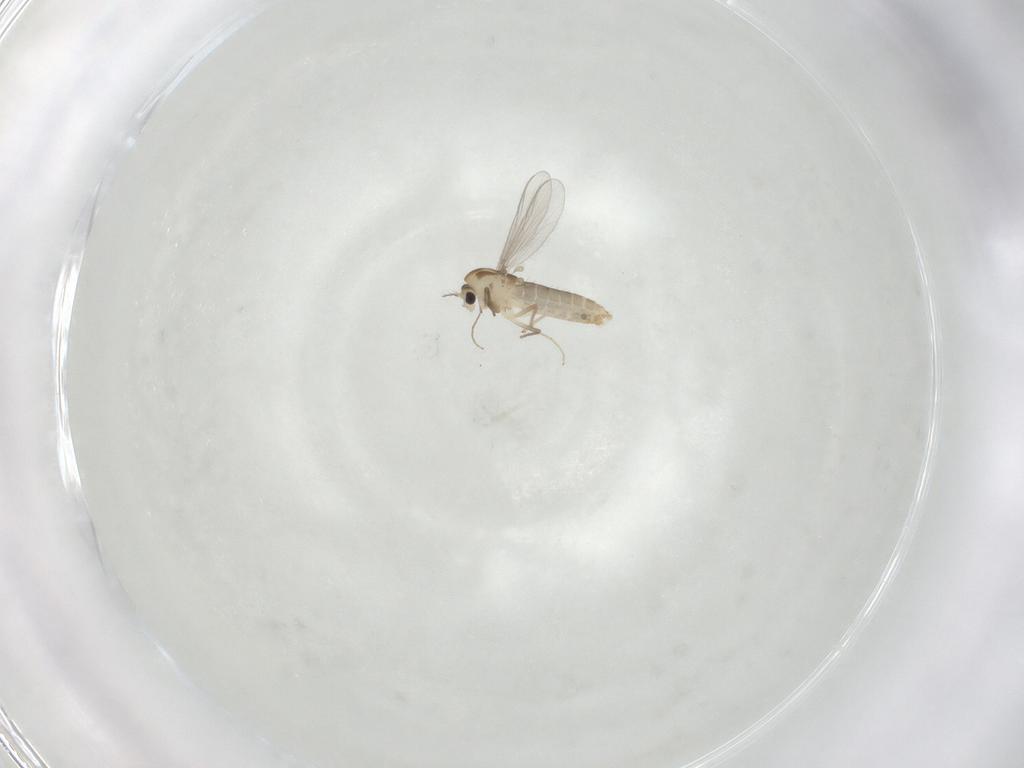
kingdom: Animalia
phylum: Arthropoda
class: Insecta
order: Diptera
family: Chironomidae
